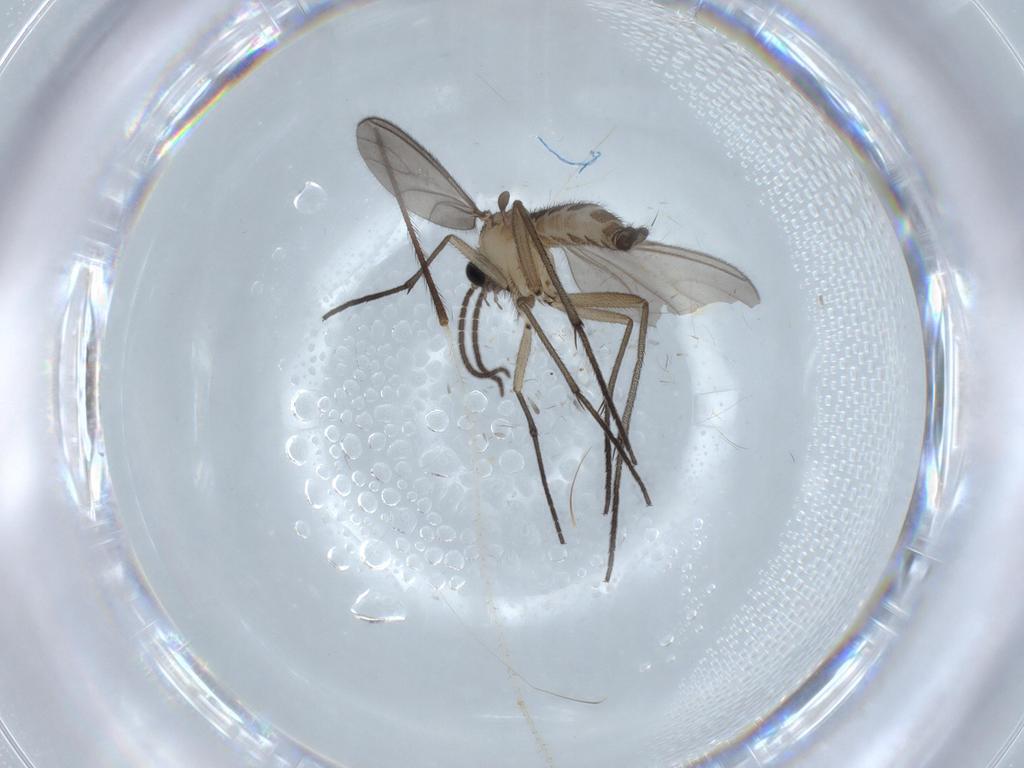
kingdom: Animalia
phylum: Arthropoda
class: Insecta
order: Diptera
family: Sciaridae
